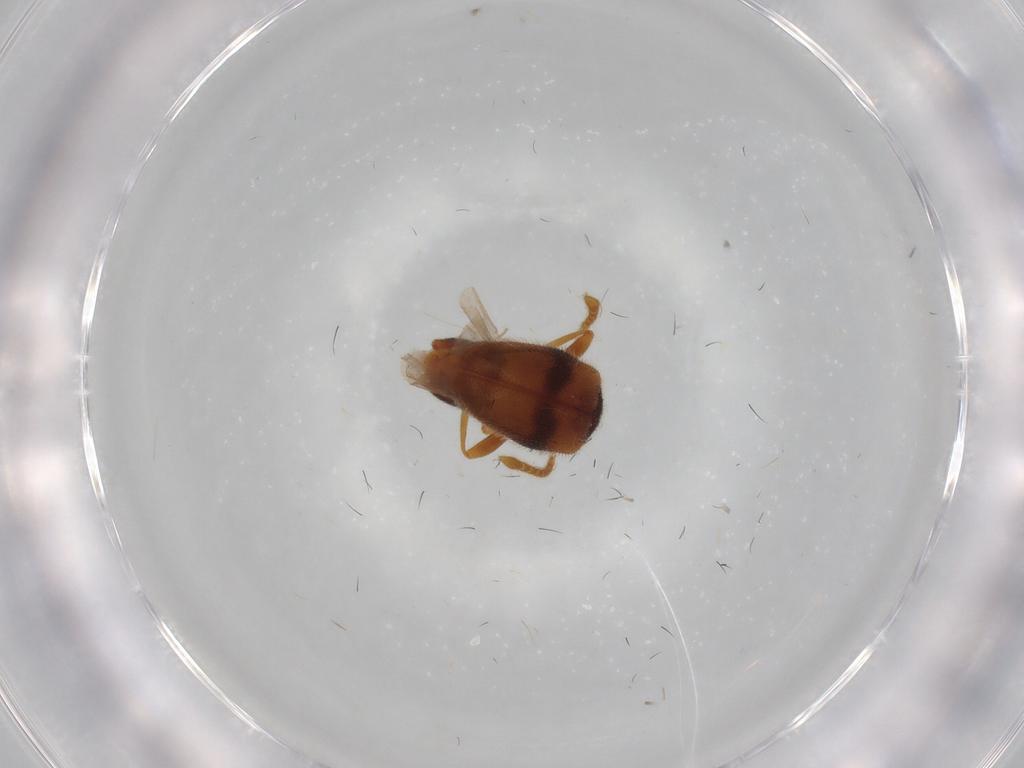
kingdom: Animalia
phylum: Arthropoda
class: Insecta
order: Coleoptera
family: Aderidae
